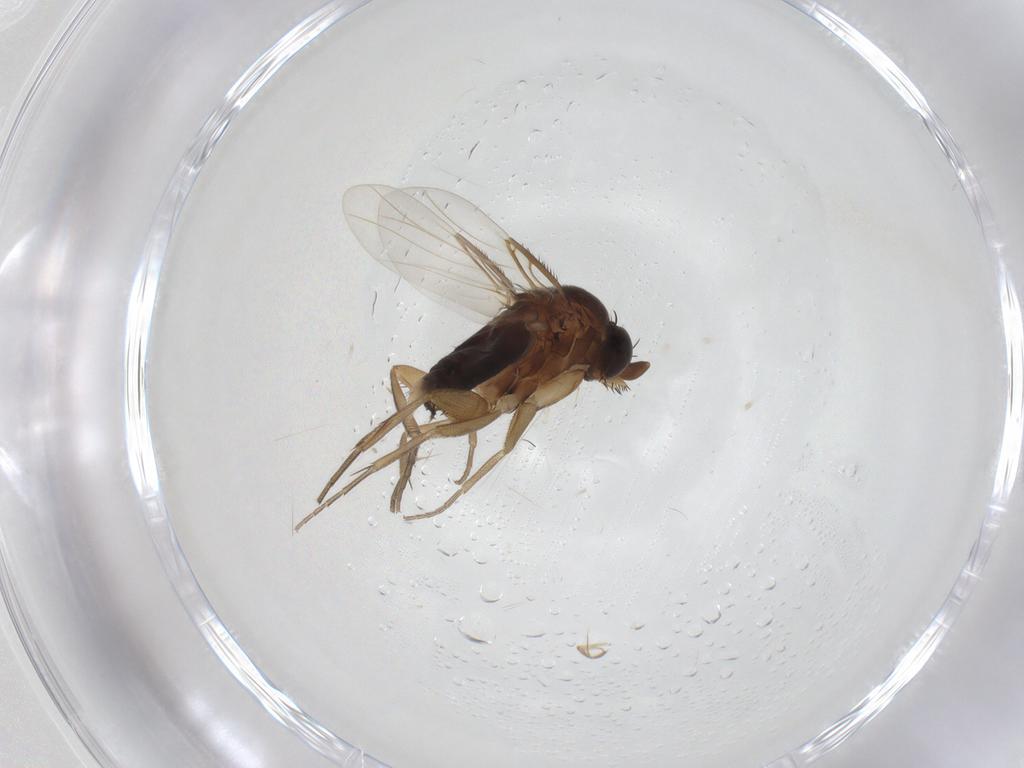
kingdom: Animalia
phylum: Arthropoda
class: Insecta
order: Diptera
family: Phoridae
